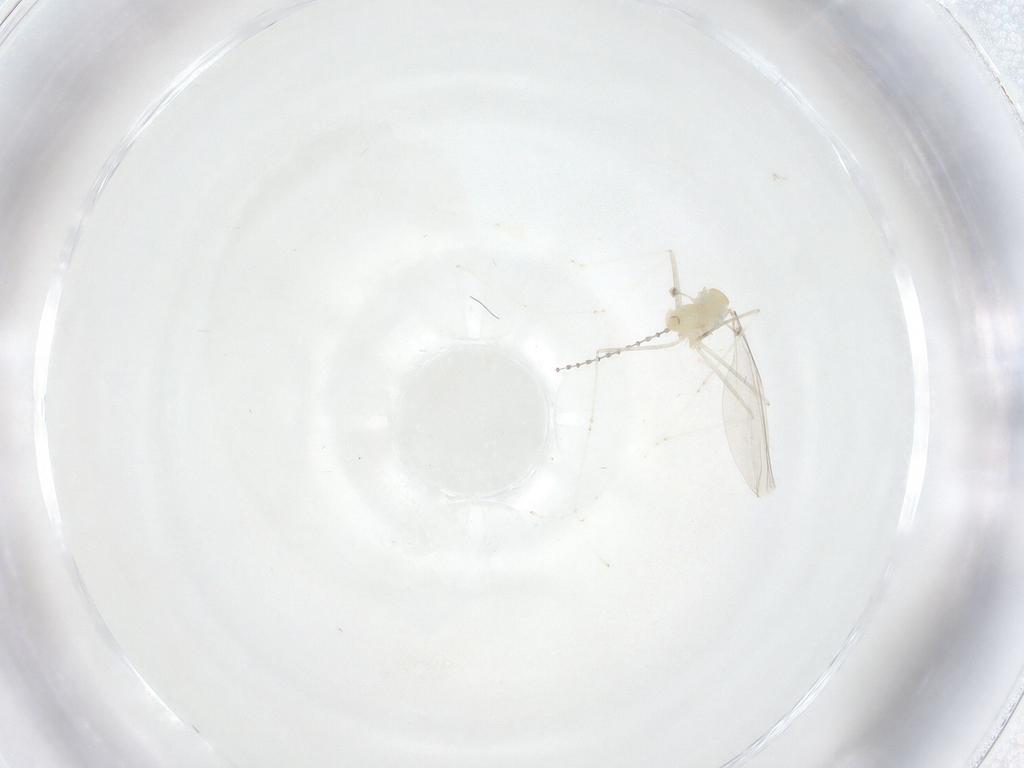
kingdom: Animalia
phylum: Arthropoda
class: Insecta
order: Diptera
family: Cecidomyiidae
